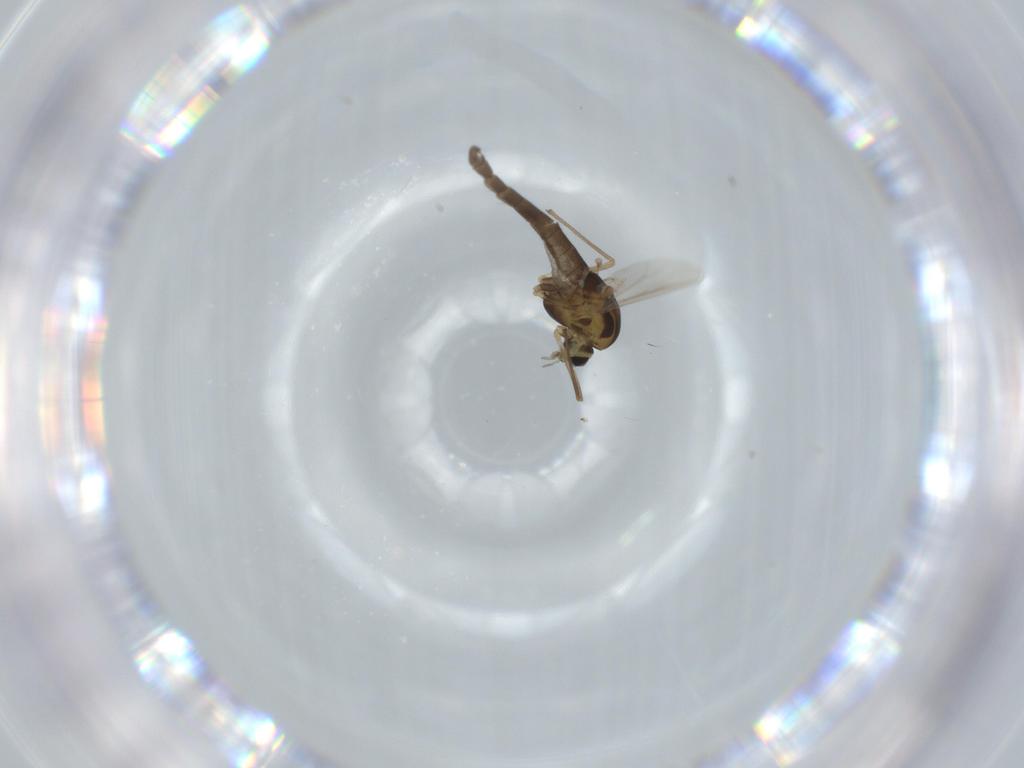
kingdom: Animalia
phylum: Arthropoda
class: Insecta
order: Diptera
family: Chironomidae
